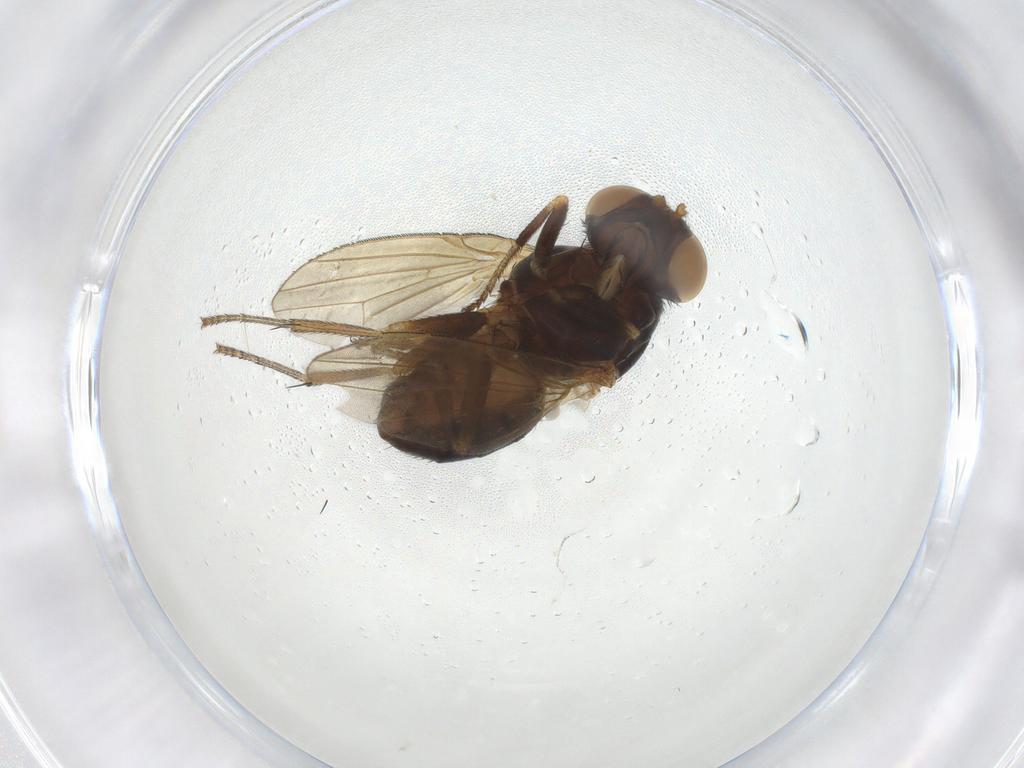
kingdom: Animalia
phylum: Arthropoda
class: Insecta
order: Diptera
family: Lauxaniidae
